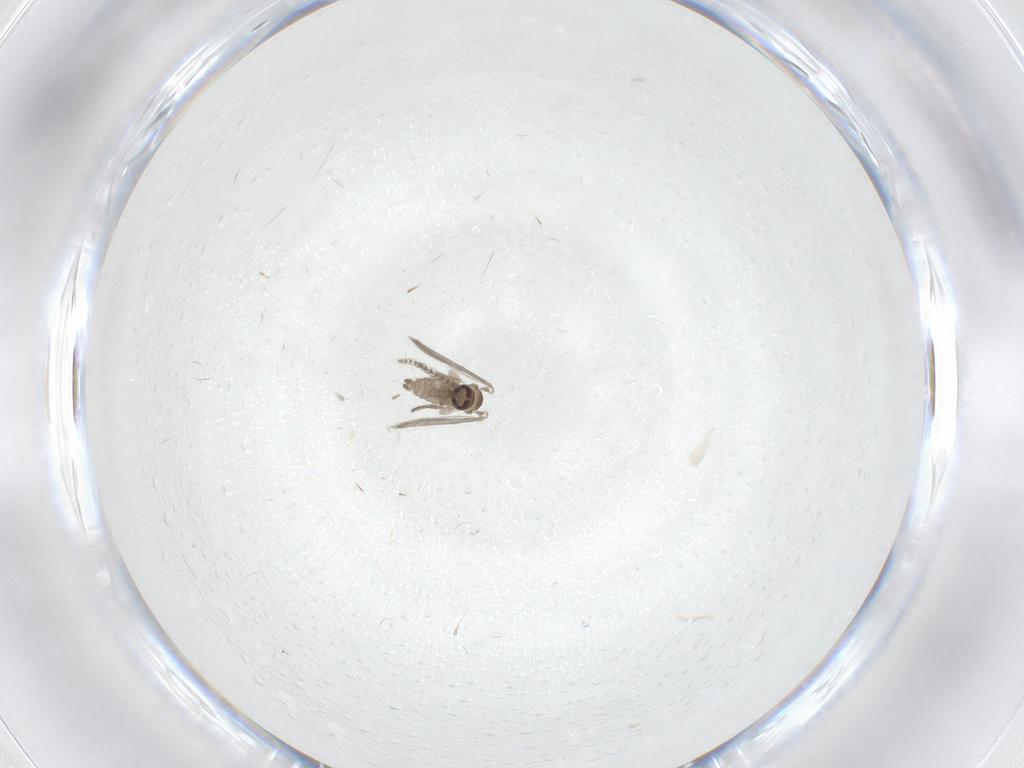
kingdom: Animalia
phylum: Arthropoda
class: Insecta
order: Diptera
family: Psychodidae
